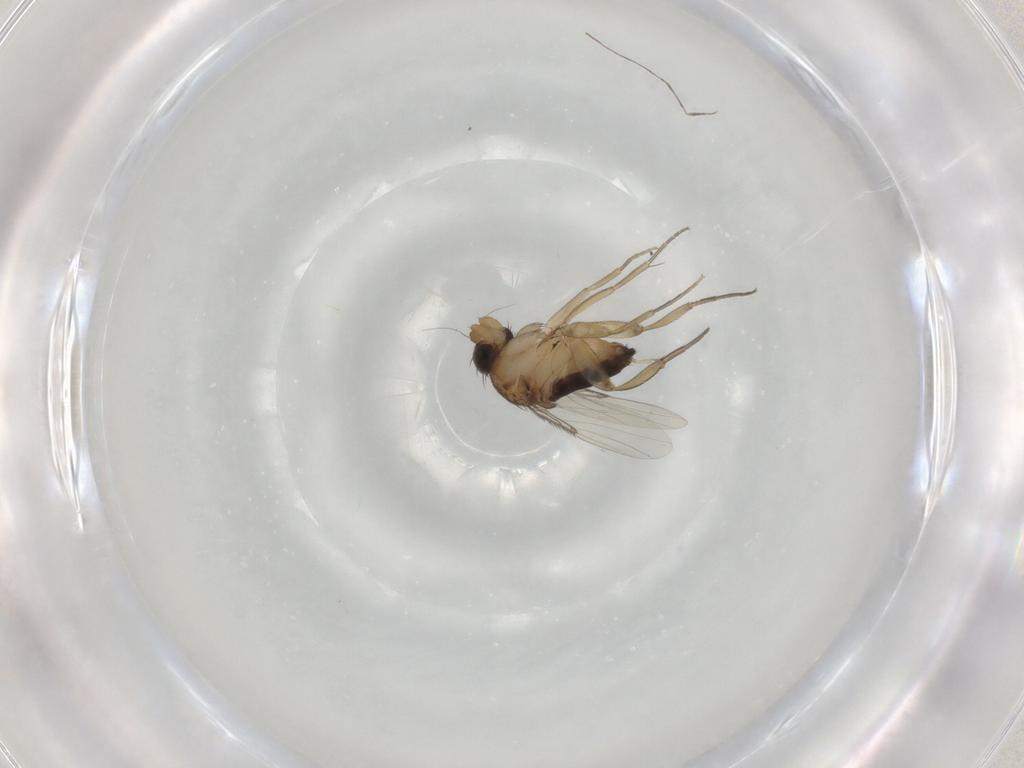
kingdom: Animalia
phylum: Arthropoda
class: Insecta
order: Diptera
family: Cecidomyiidae
